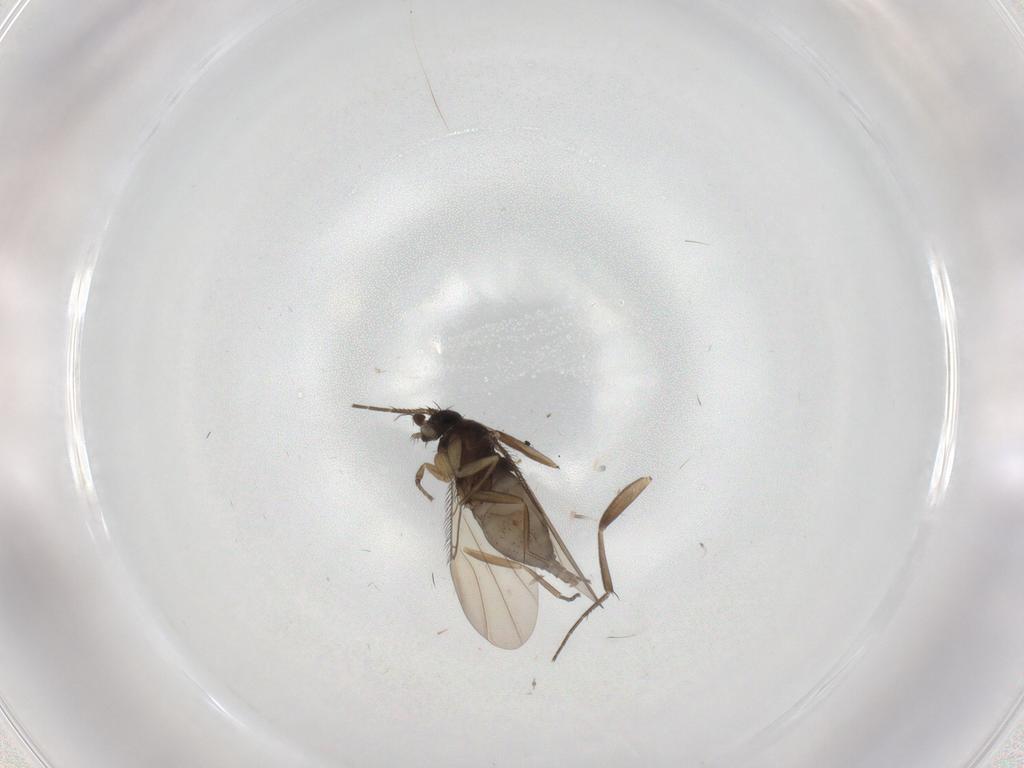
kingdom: Animalia
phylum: Arthropoda
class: Insecta
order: Diptera
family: Phoridae
